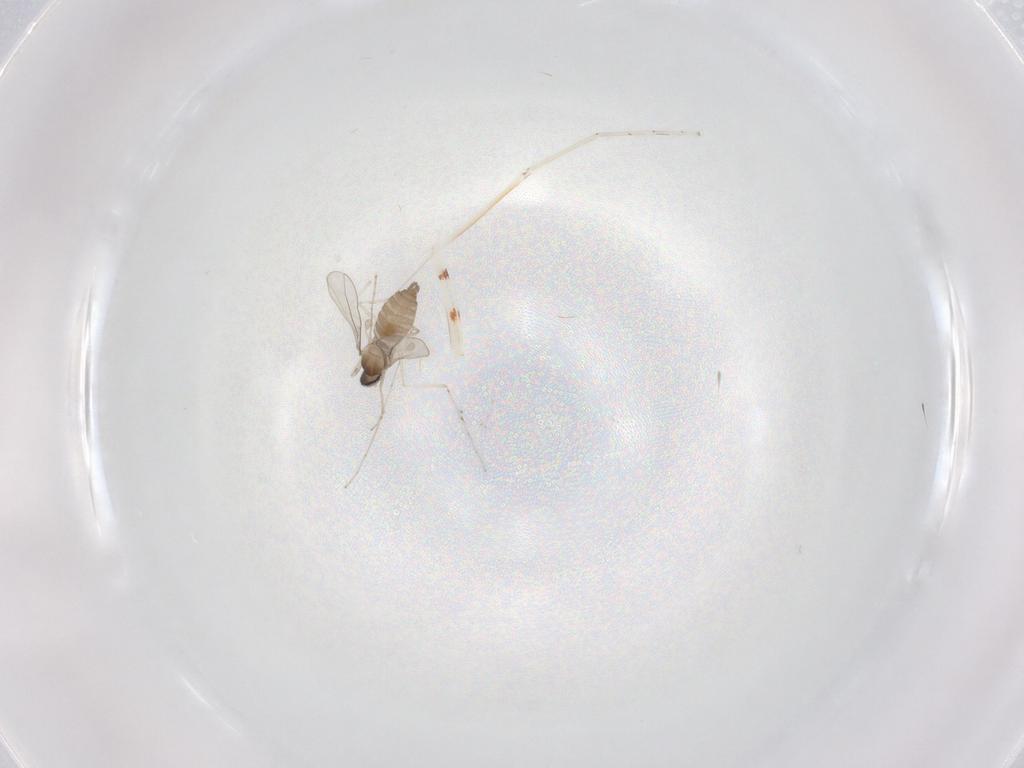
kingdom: Animalia
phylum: Arthropoda
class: Insecta
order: Diptera
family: Cecidomyiidae
